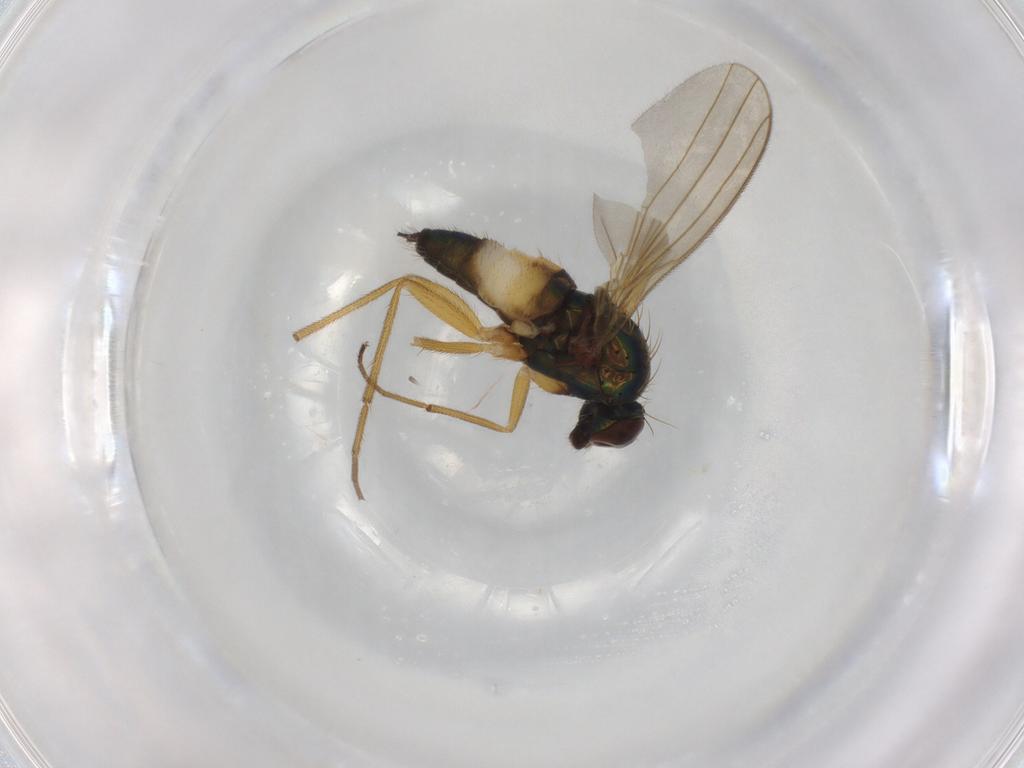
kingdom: Animalia
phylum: Arthropoda
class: Insecta
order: Diptera
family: Dolichopodidae
